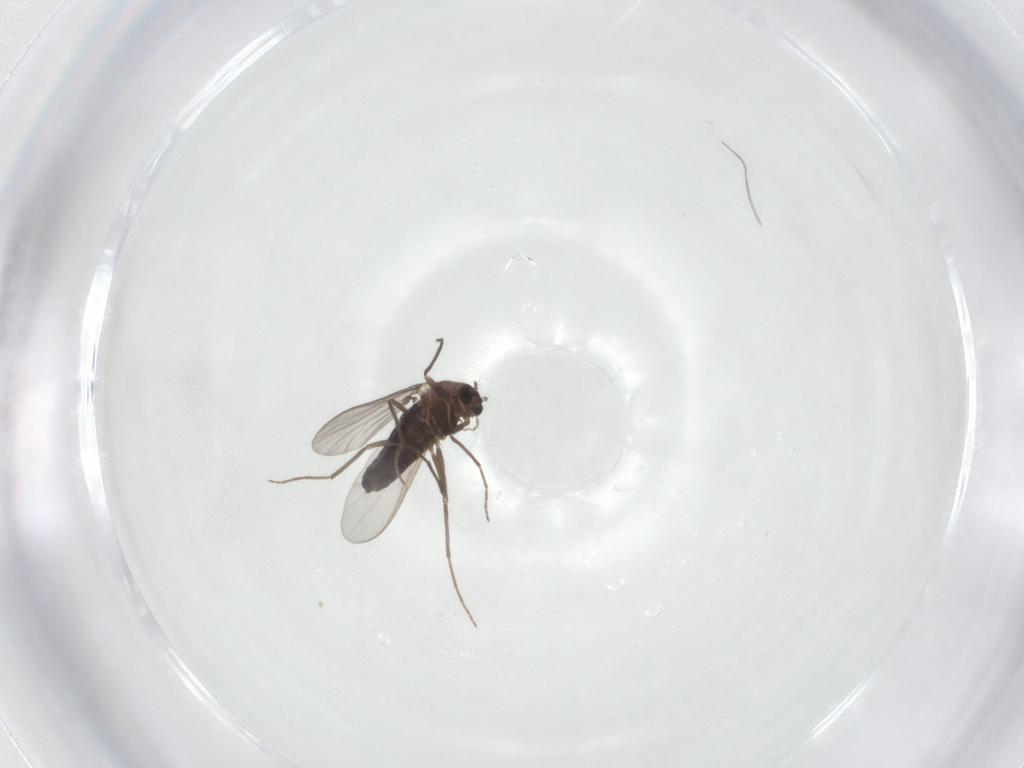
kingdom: Animalia
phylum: Arthropoda
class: Insecta
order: Diptera
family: Chironomidae
